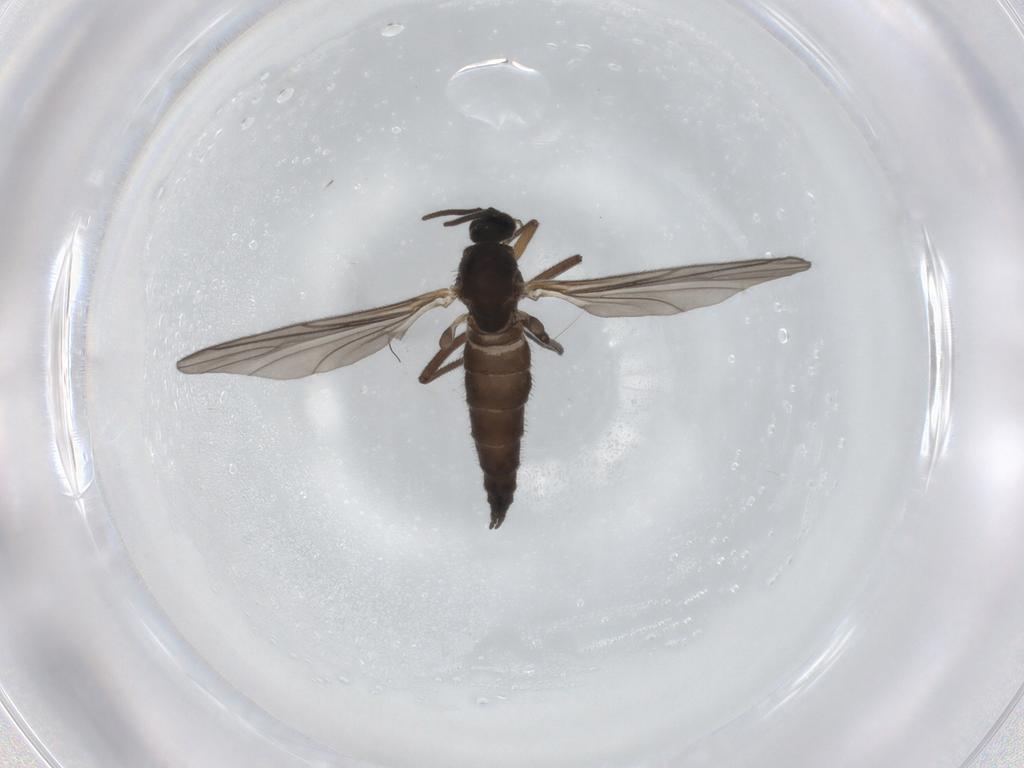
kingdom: Animalia
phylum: Arthropoda
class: Insecta
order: Diptera
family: Sciaridae
